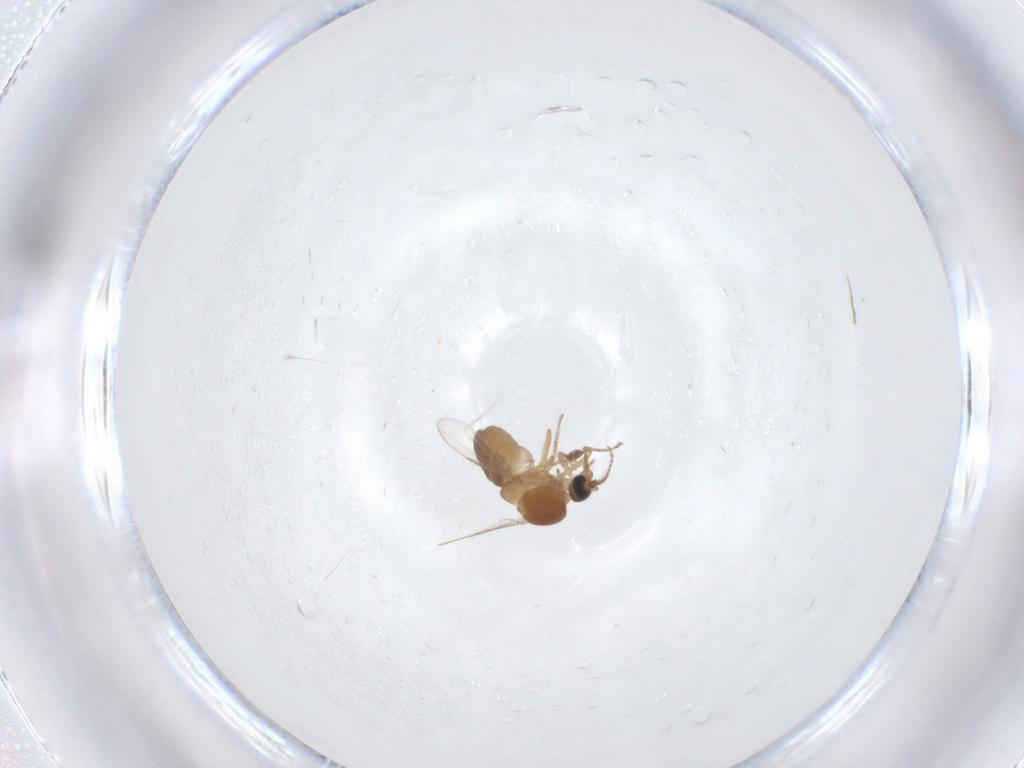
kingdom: Animalia
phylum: Arthropoda
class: Insecta
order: Diptera
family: Ceratopogonidae
